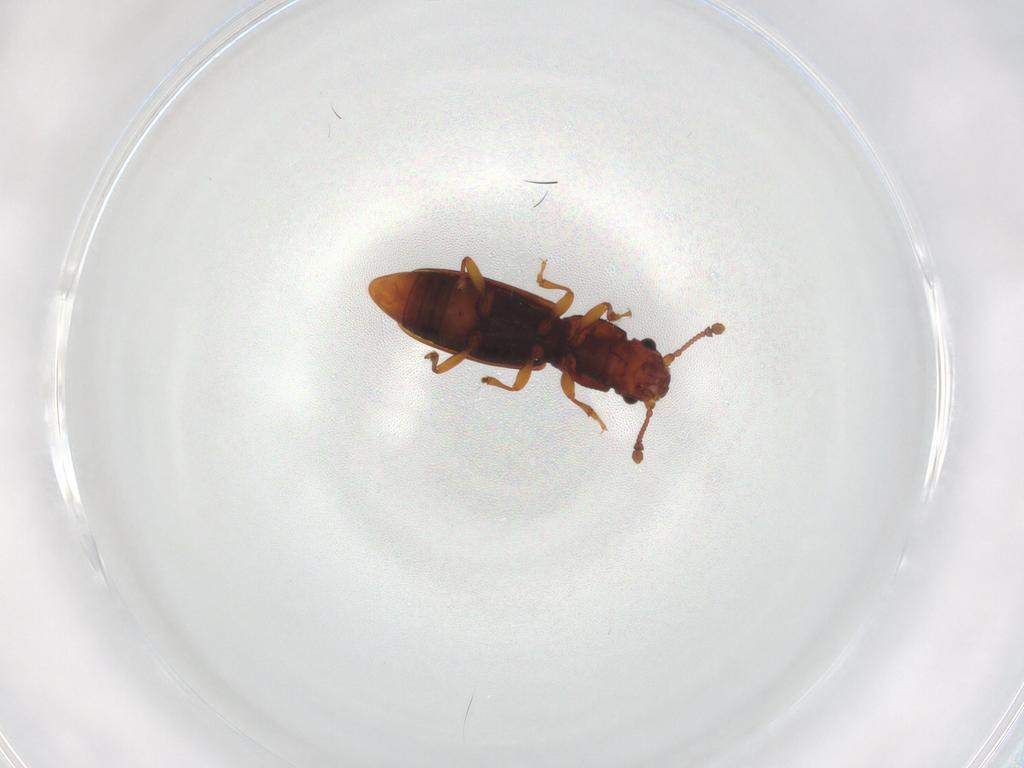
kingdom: Animalia
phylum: Arthropoda
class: Insecta
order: Coleoptera
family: Monotomidae
